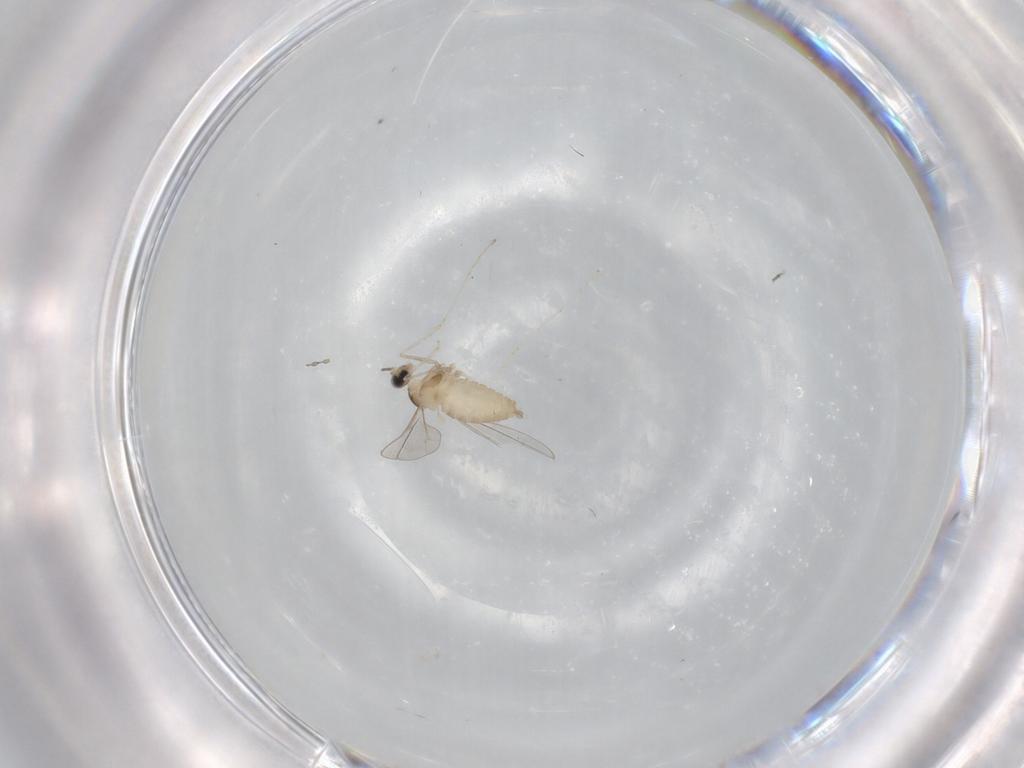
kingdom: Animalia
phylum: Arthropoda
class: Insecta
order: Diptera
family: Cecidomyiidae
